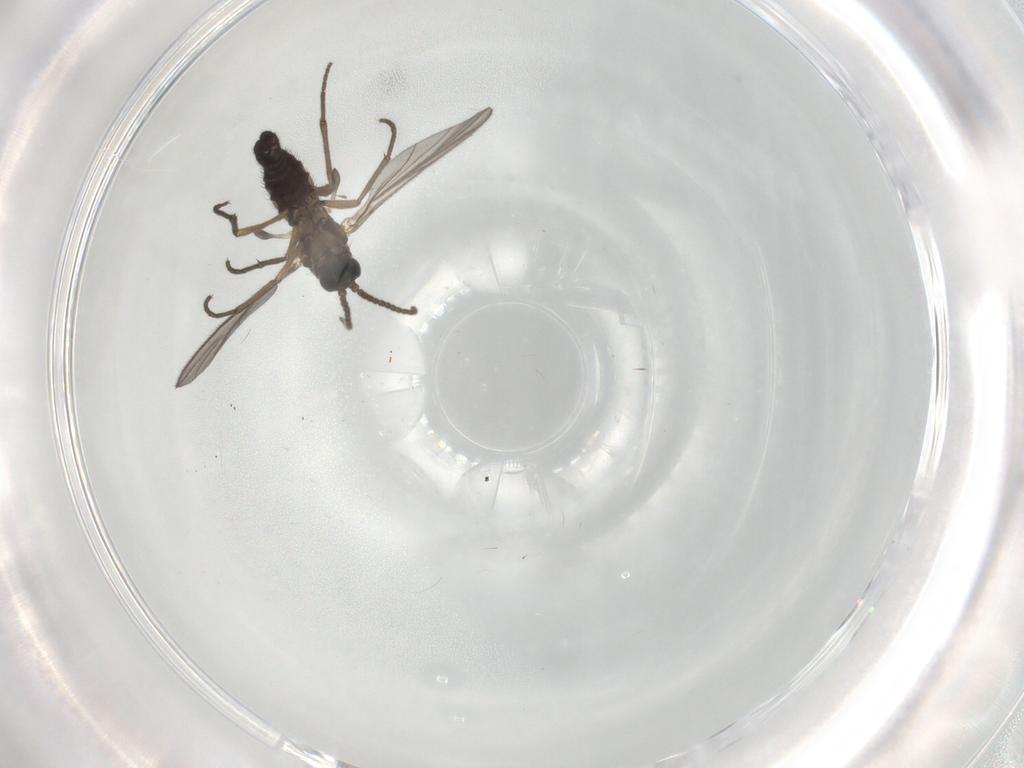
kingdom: Animalia
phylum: Arthropoda
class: Insecta
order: Diptera
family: Sciaridae
